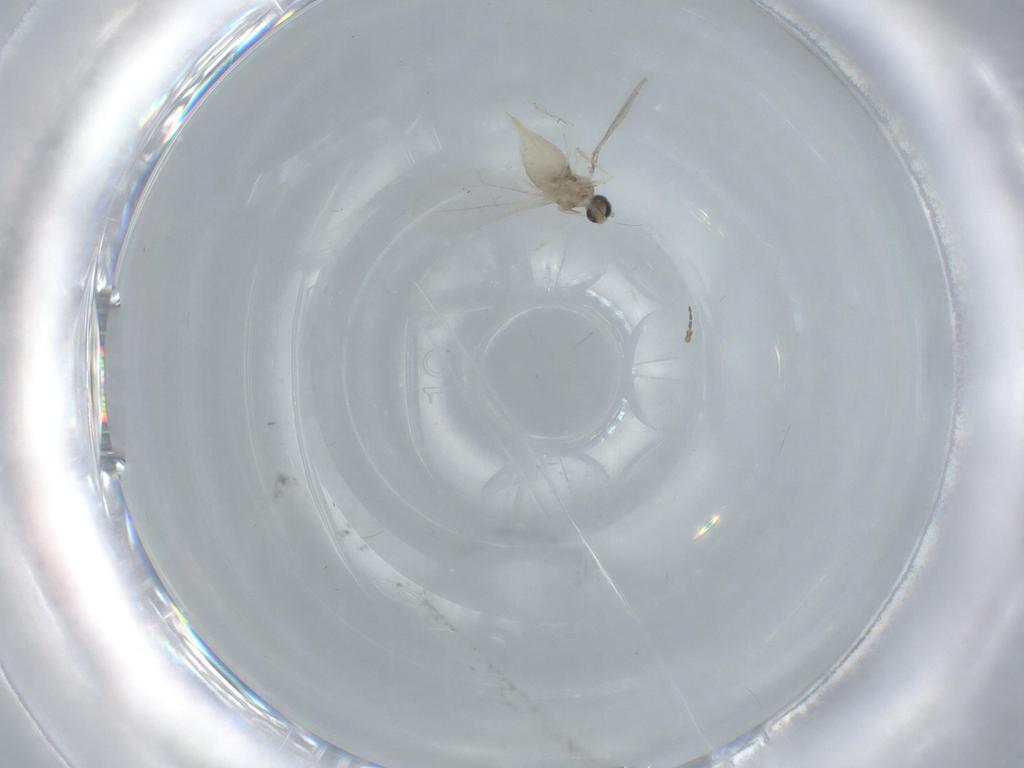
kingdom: Animalia
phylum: Arthropoda
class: Insecta
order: Diptera
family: Cecidomyiidae
